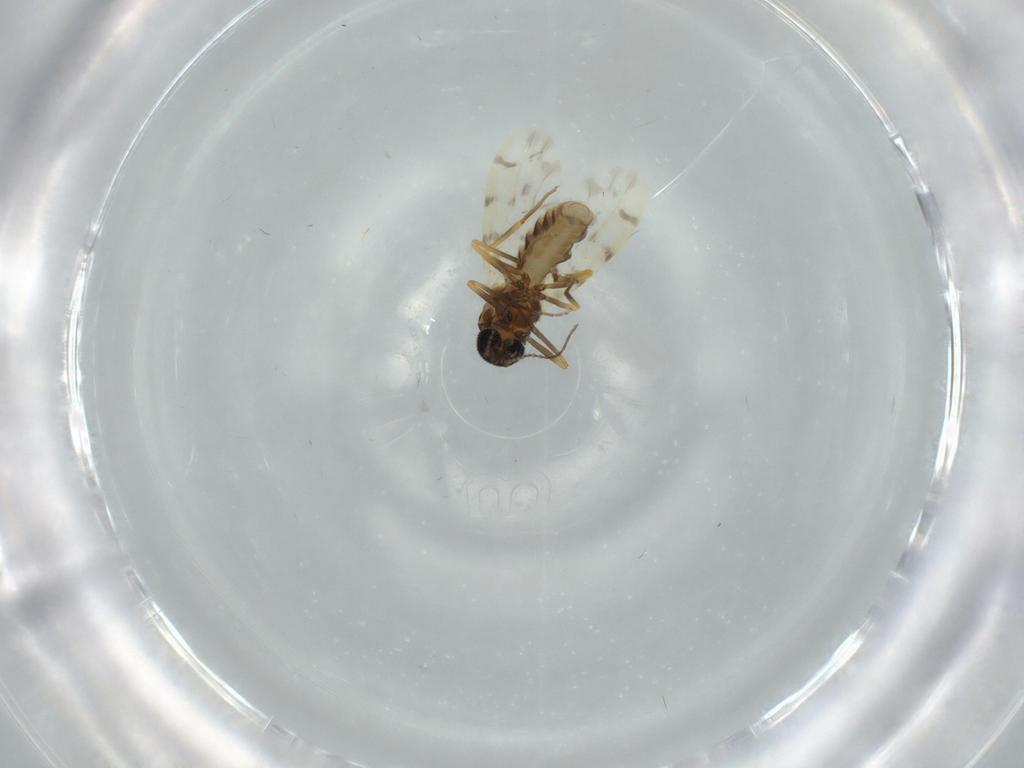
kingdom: Animalia
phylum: Arthropoda
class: Insecta
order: Diptera
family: Ceratopogonidae
